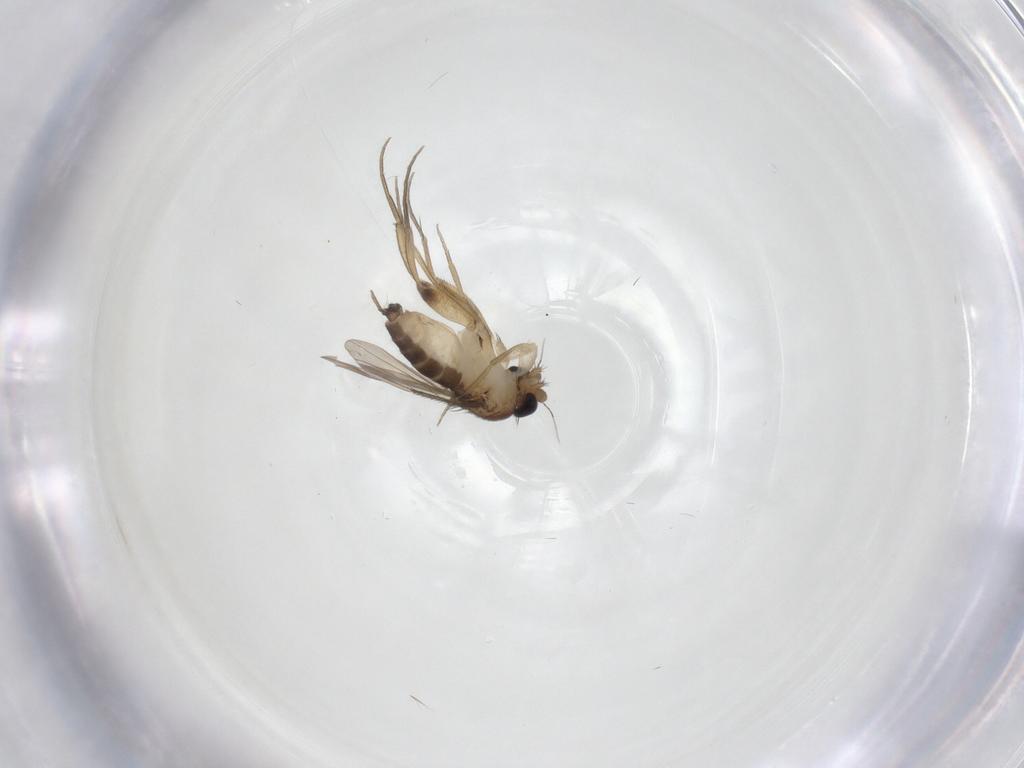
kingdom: Animalia
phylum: Arthropoda
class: Insecta
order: Diptera
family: Phoridae
